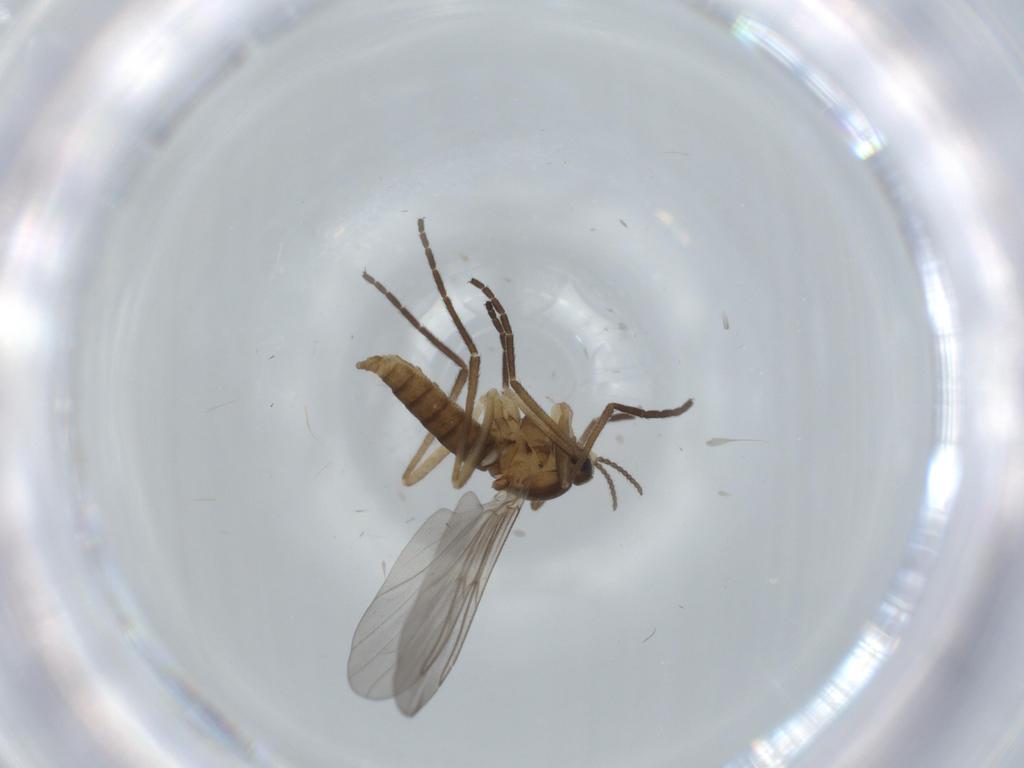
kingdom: Animalia
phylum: Arthropoda
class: Insecta
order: Diptera
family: Cecidomyiidae
